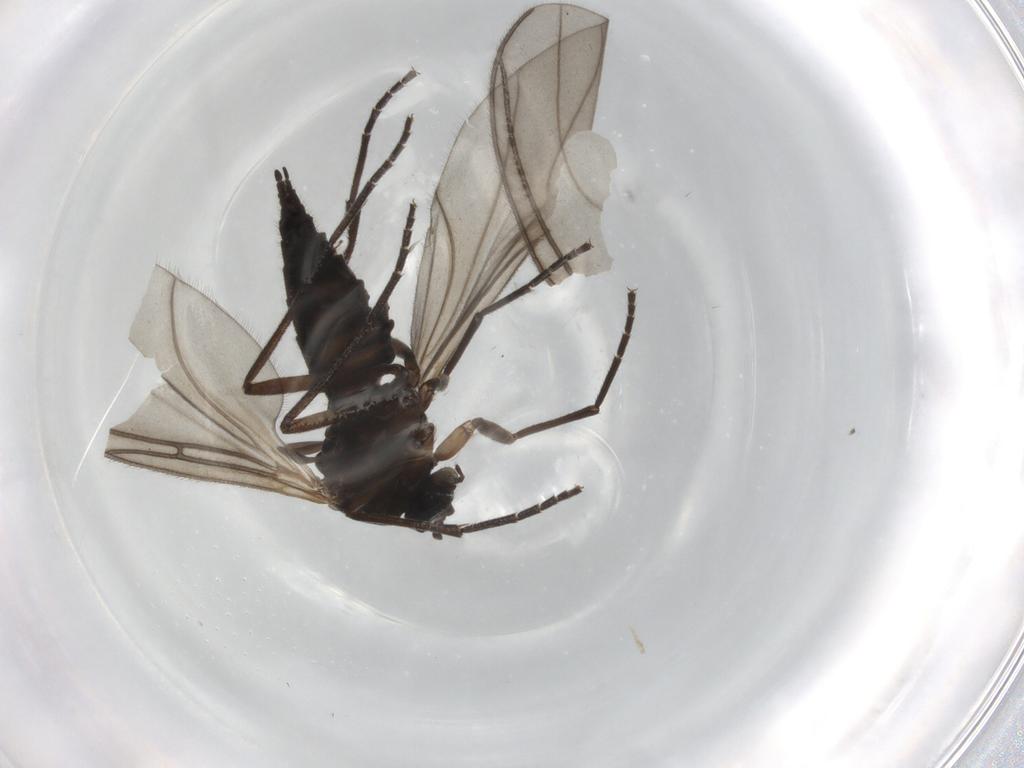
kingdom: Animalia
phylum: Arthropoda
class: Insecta
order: Diptera
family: Sciaridae
